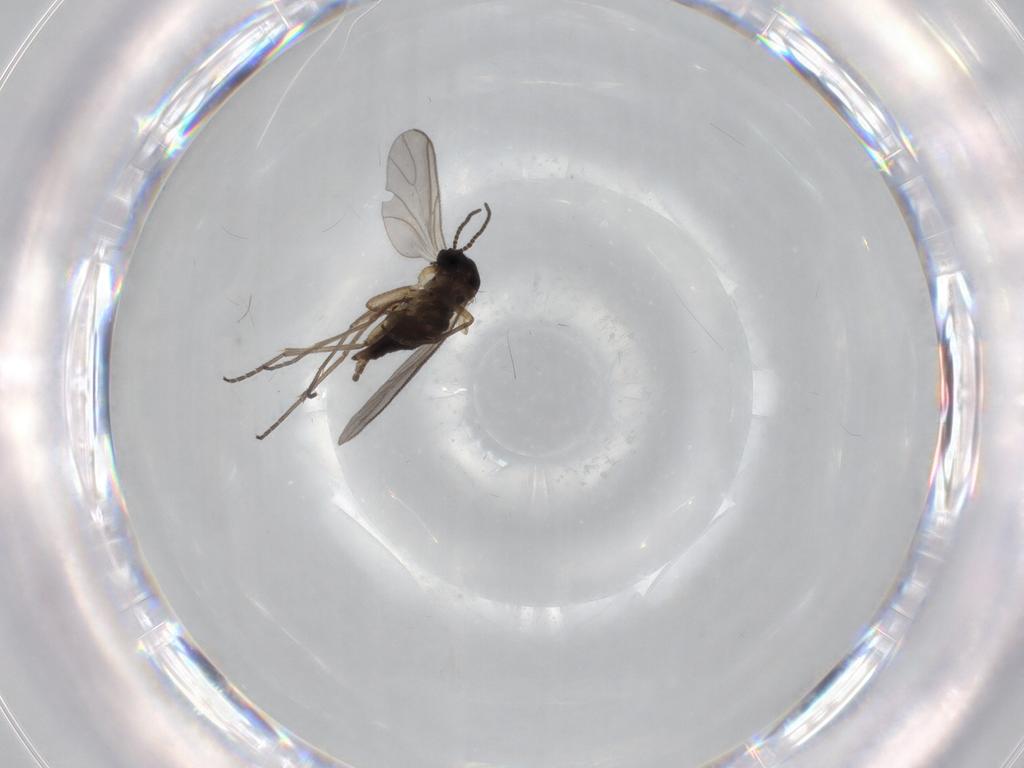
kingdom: Animalia
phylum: Arthropoda
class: Insecta
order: Diptera
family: Sciaridae
